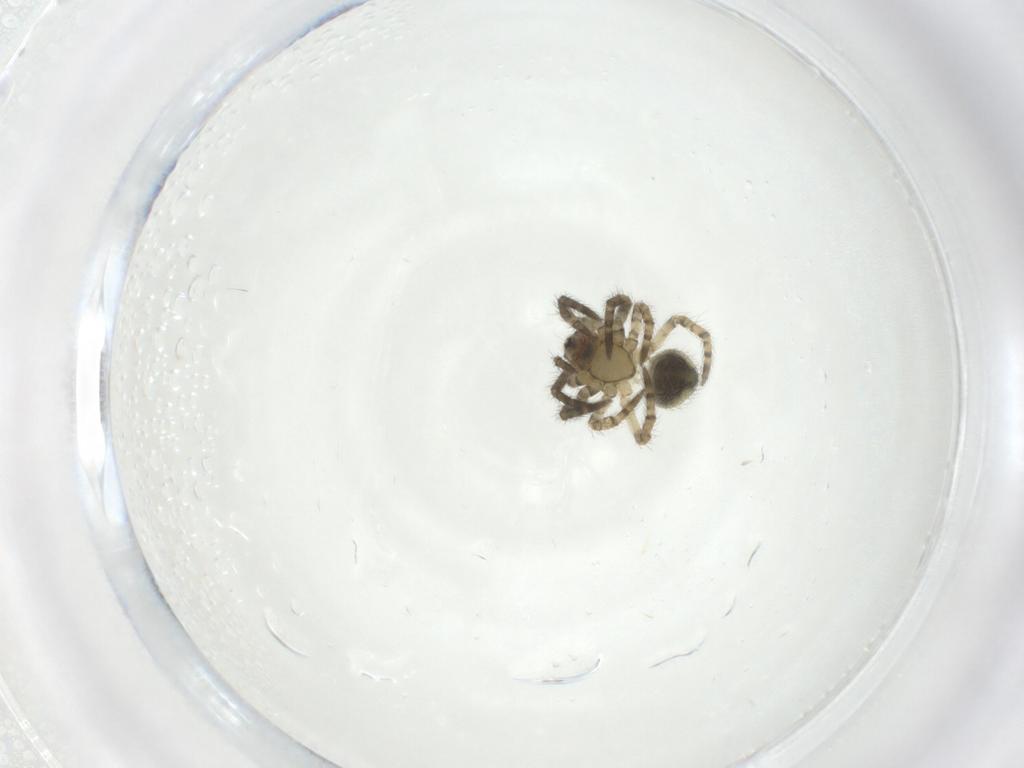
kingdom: Animalia
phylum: Arthropoda
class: Arachnida
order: Araneae
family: Araneidae
